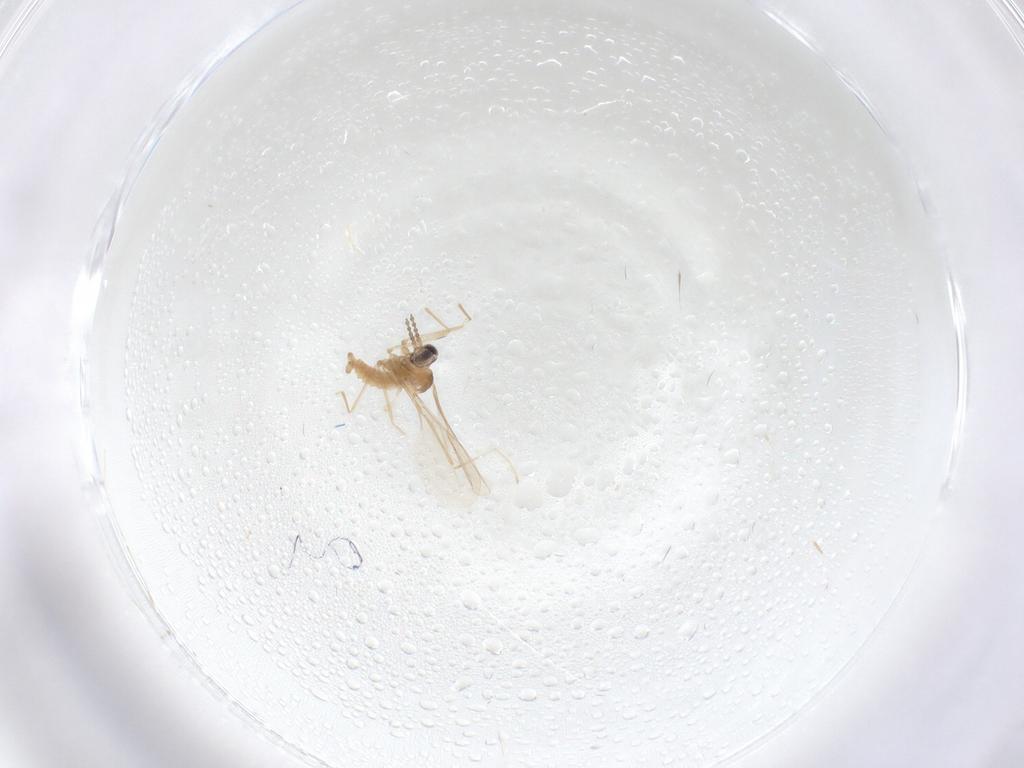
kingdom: Animalia
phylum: Arthropoda
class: Insecta
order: Diptera
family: Cecidomyiidae
